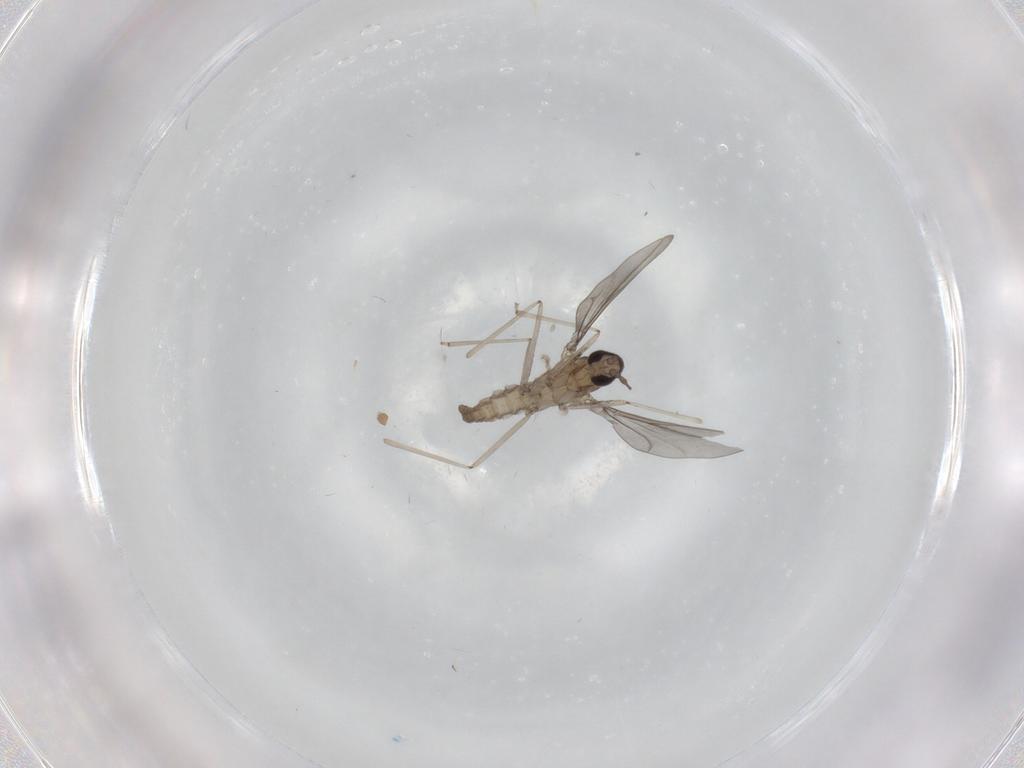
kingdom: Animalia
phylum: Arthropoda
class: Insecta
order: Diptera
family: Cecidomyiidae
